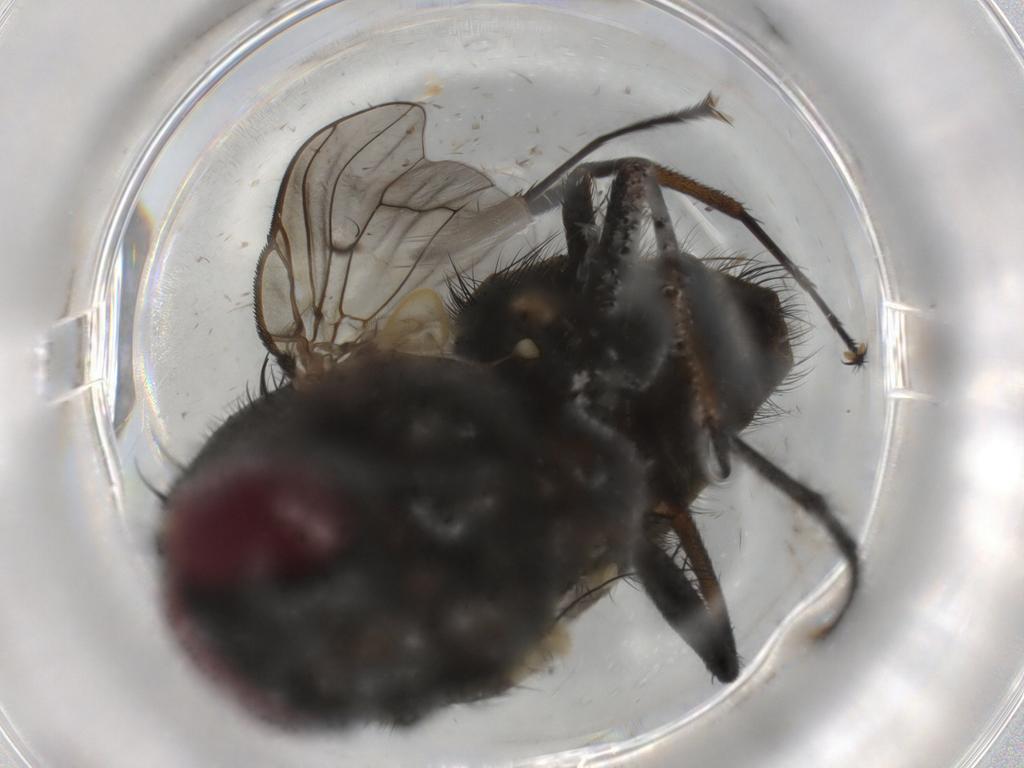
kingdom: Animalia
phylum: Arthropoda
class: Insecta
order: Diptera
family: Muscidae
